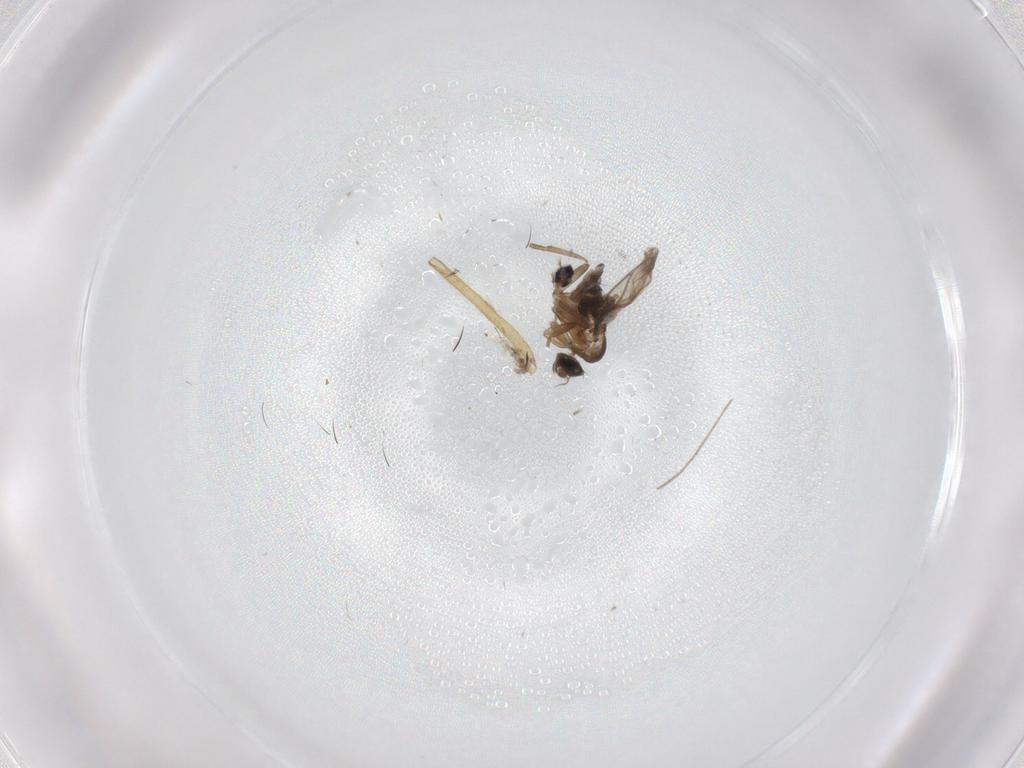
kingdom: Animalia
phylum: Arthropoda
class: Insecta
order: Diptera
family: Cecidomyiidae
